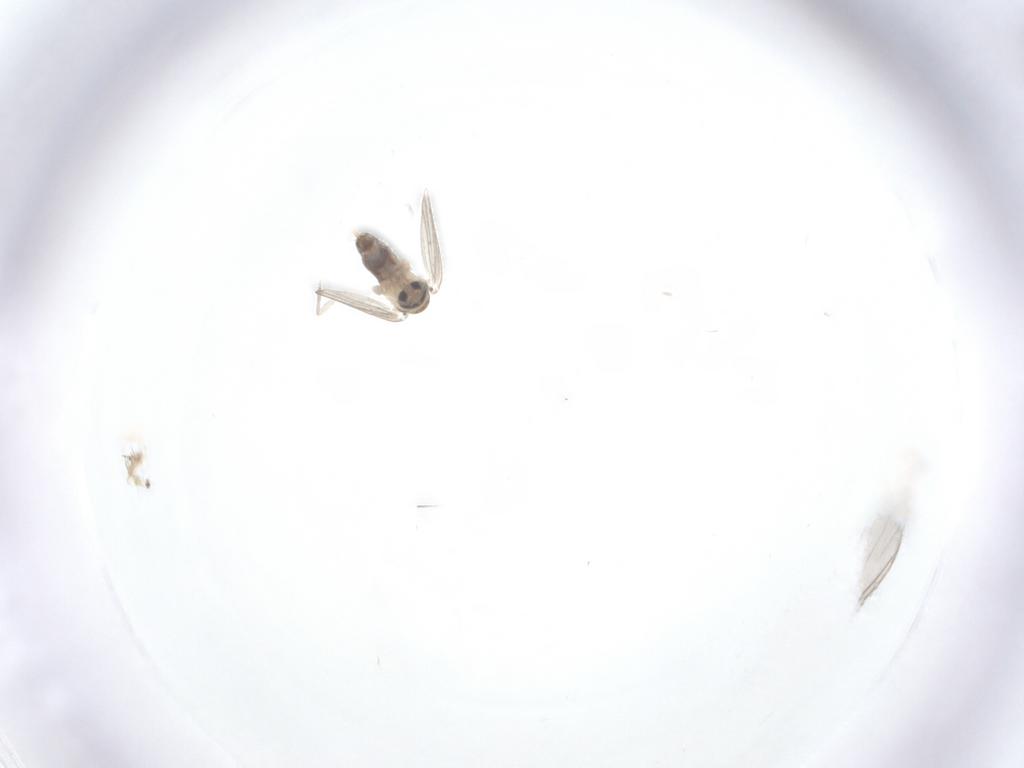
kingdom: Animalia
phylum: Arthropoda
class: Insecta
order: Diptera
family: Psychodidae
